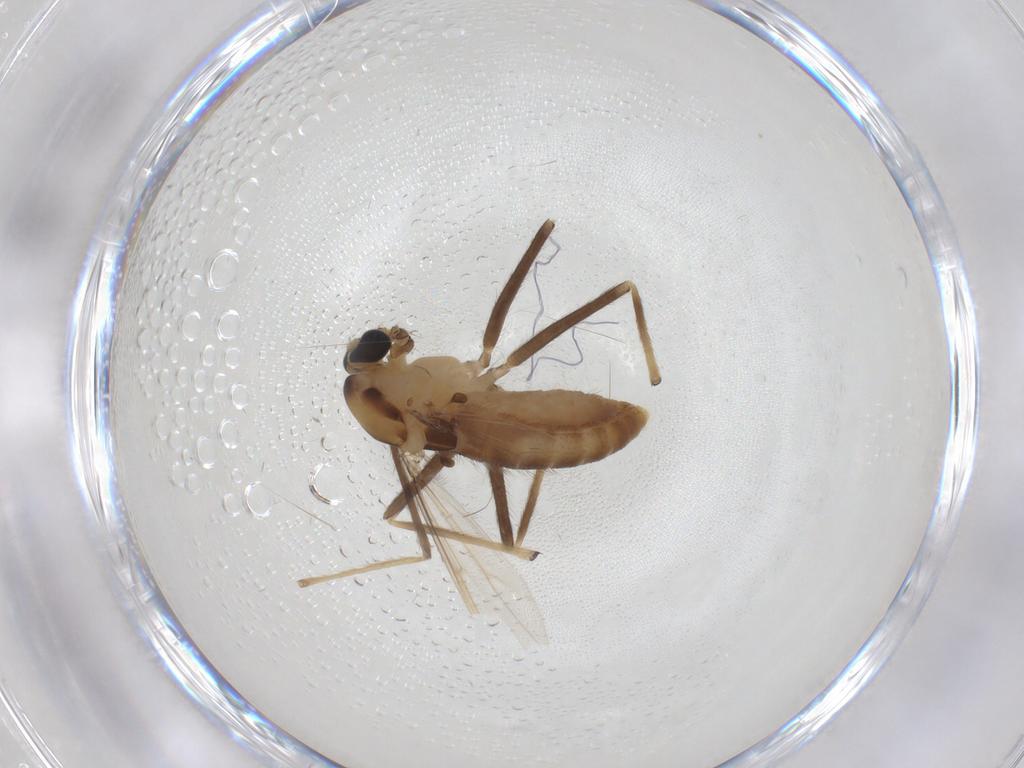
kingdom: Animalia
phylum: Arthropoda
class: Insecta
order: Diptera
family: Chironomidae
